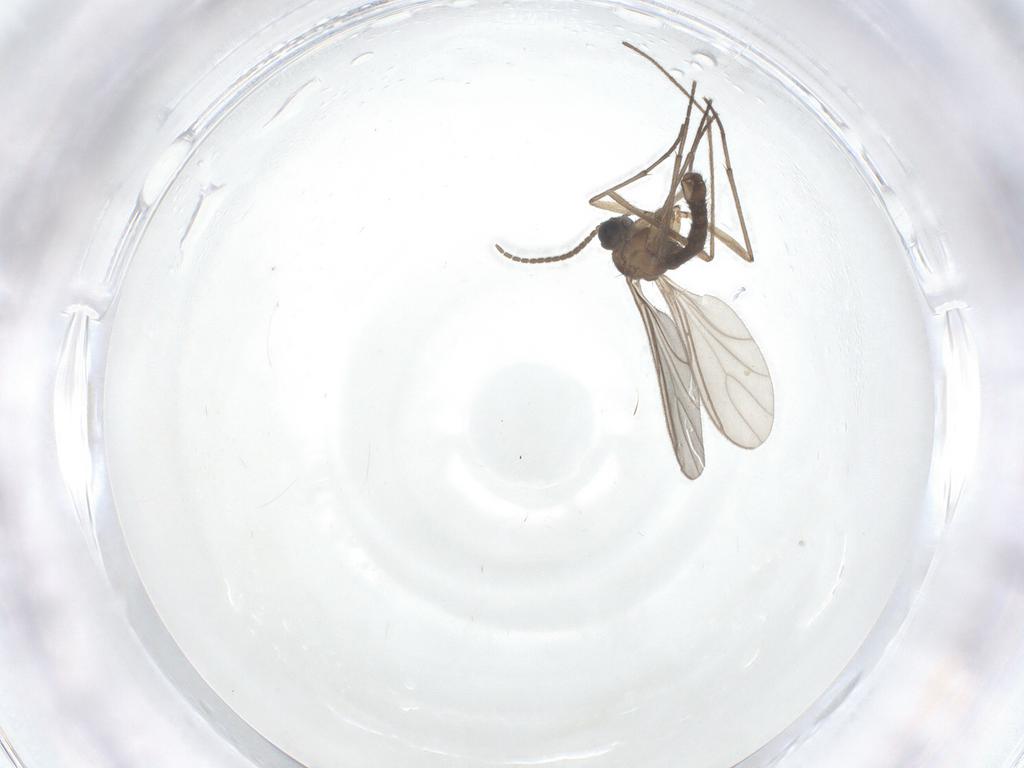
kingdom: Animalia
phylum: Arthropoda
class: Insecta
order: Diptera
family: Sciaridae
